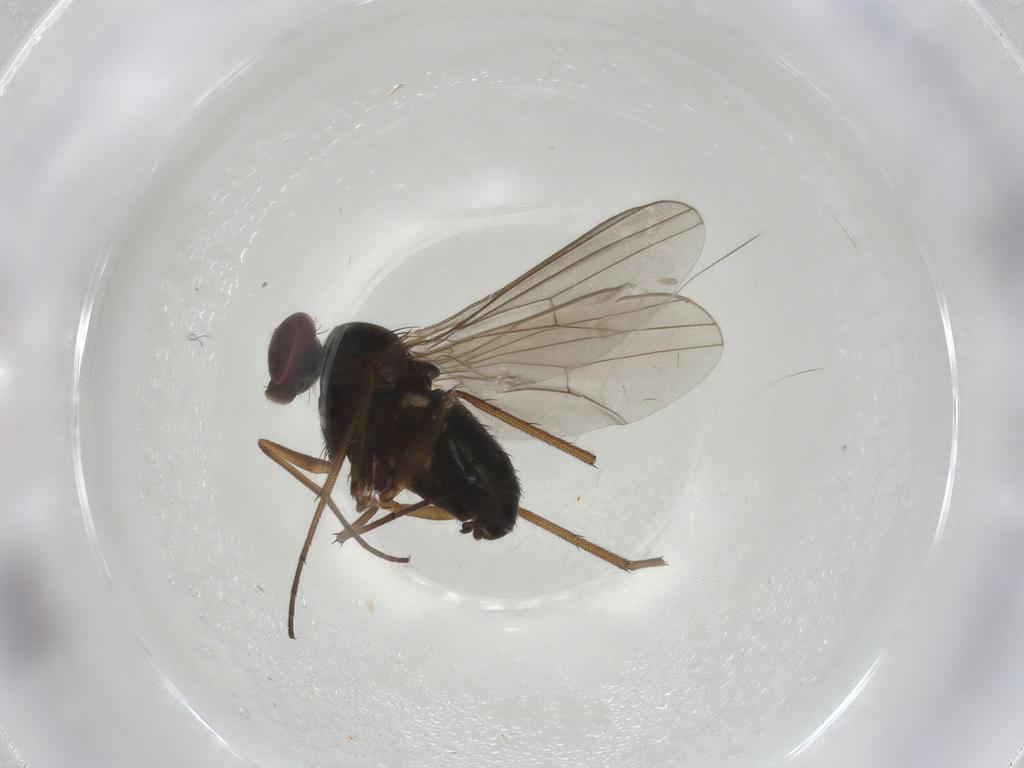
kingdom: Animalia
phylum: Arthropoda
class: Insecta
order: Diptera
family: Dolichopodidae
